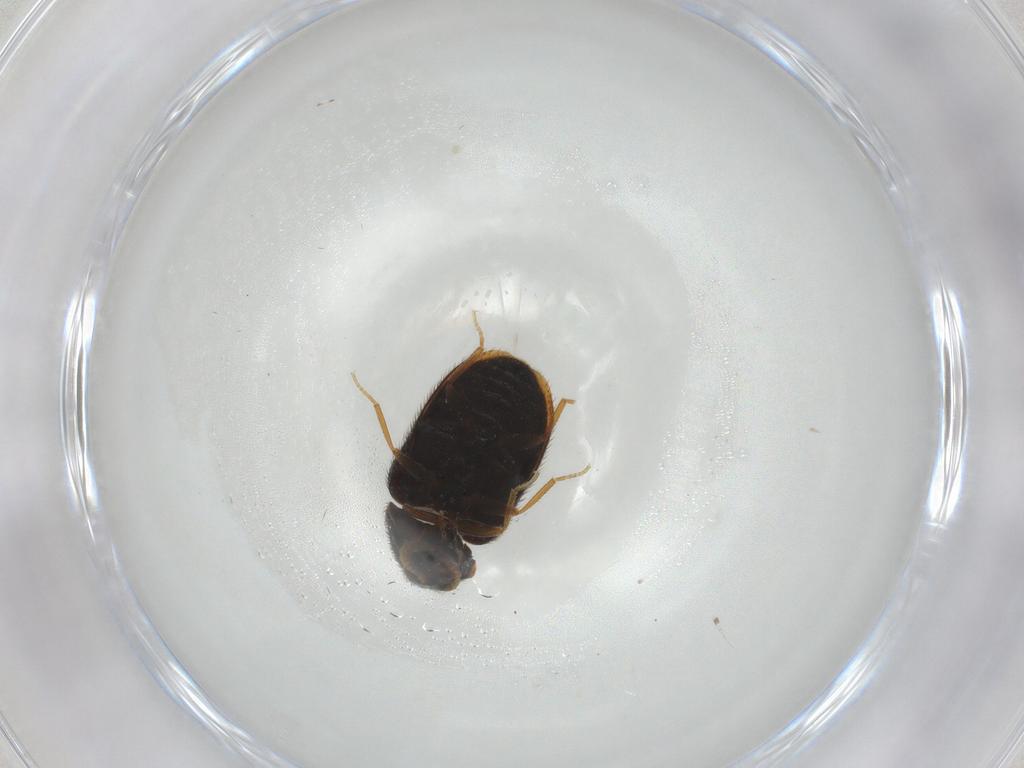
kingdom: Animalia
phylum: Arthropoda
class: Insecta
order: Coleoptera
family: Dermestidae
